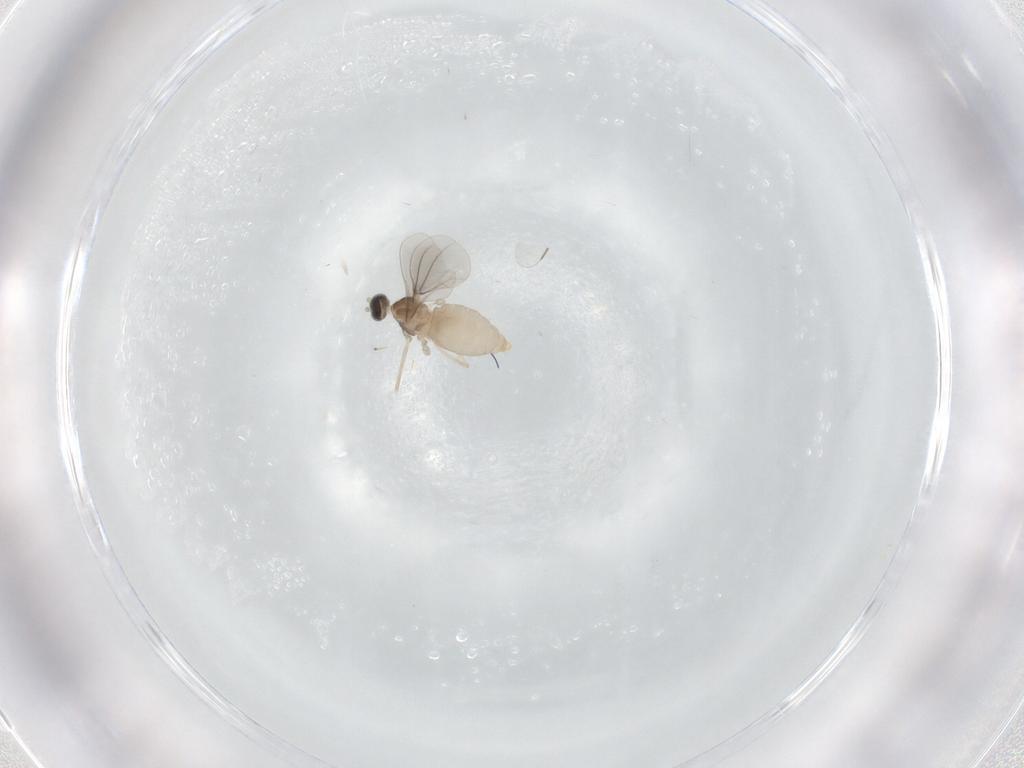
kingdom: Animalia
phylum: Arthropoda
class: Insecta
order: Diptera
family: Cecidomyiidae
